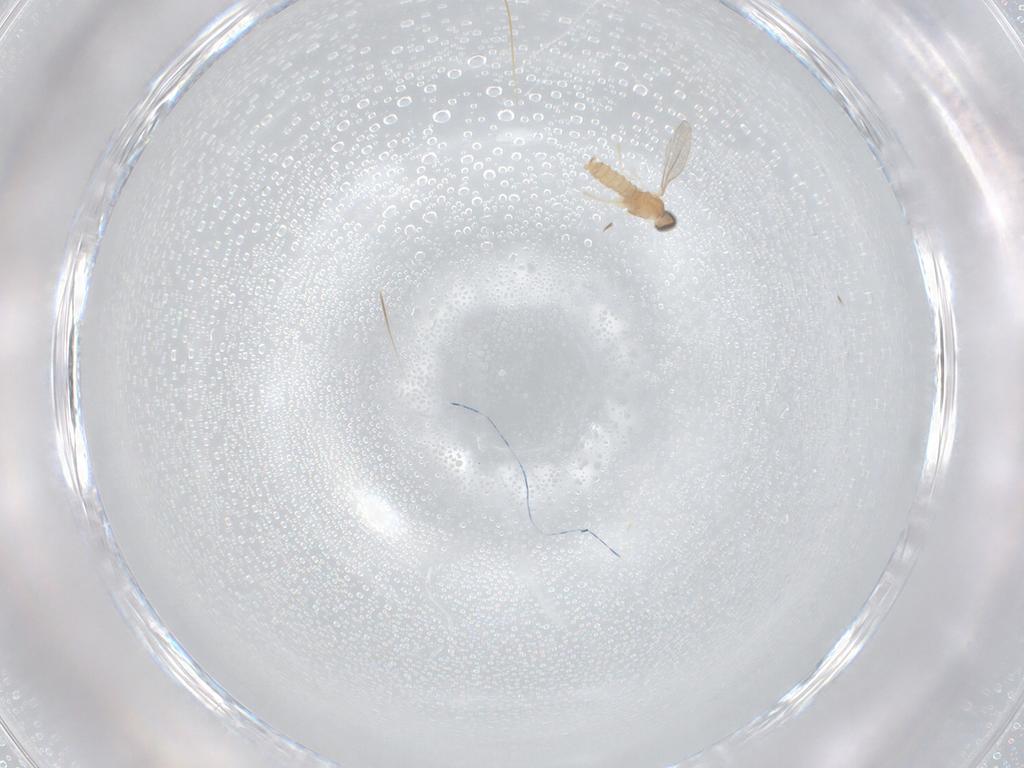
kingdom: Animalia
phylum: Arthropoda
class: Insecta
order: Diptera
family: Cecidomyiidae
